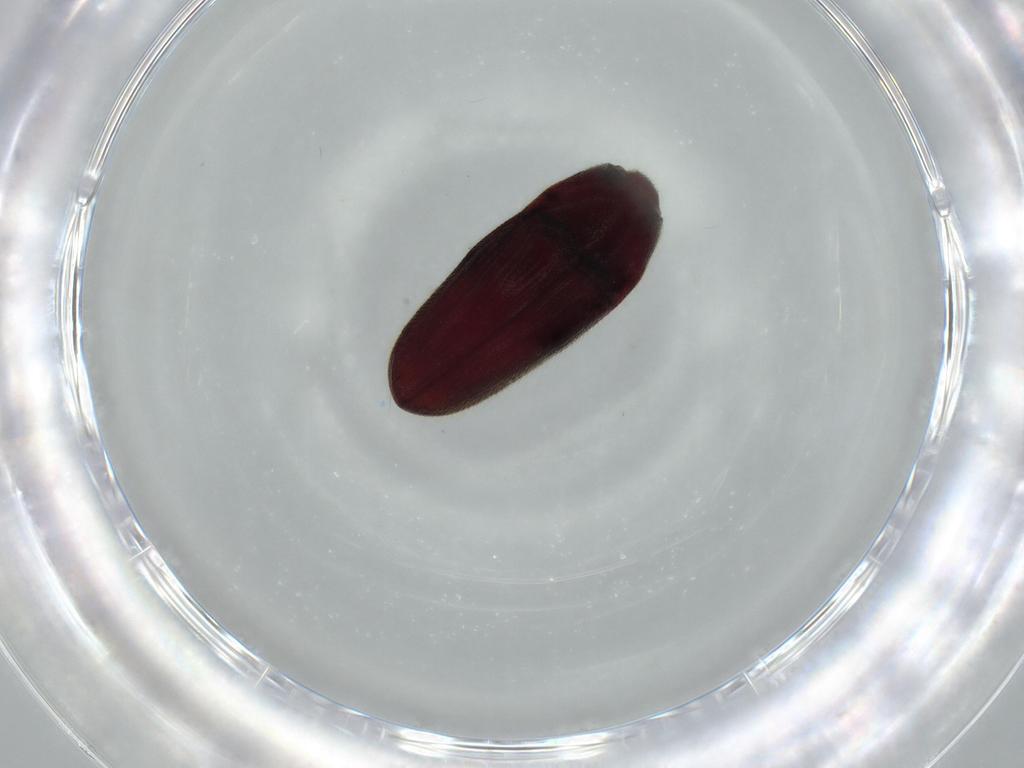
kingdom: Animalia
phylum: Arthropoda
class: Insecta
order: Coleoptera
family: Throscidae
